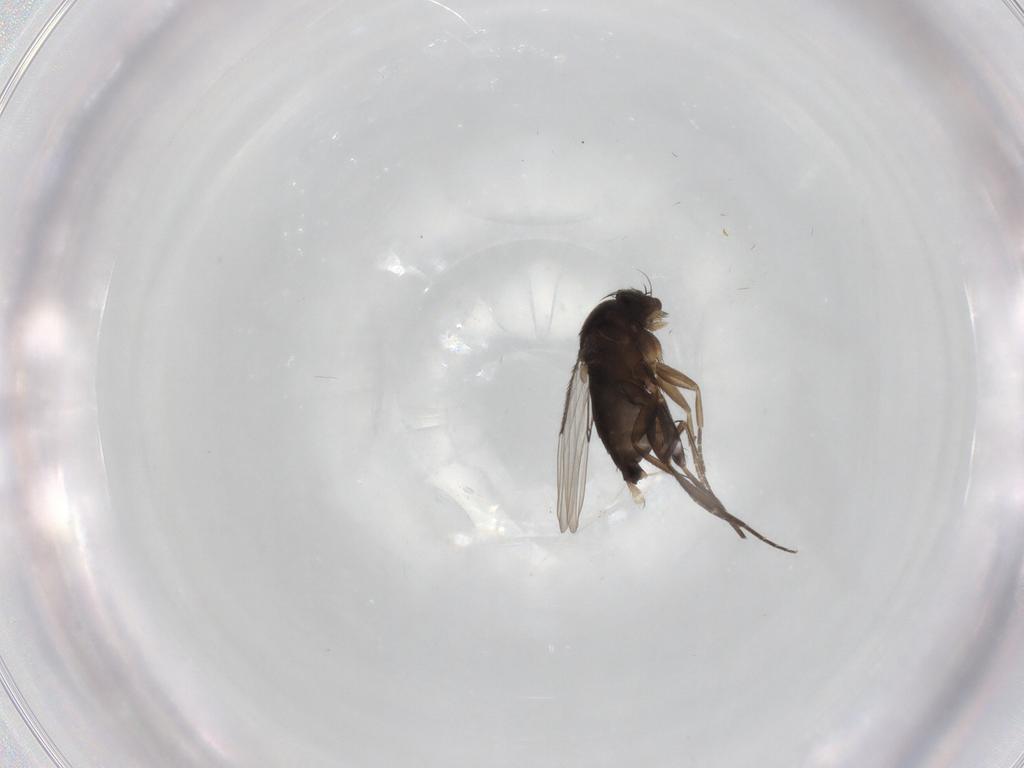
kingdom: Animalia
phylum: Arthropoda
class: Insecta
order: Diptera
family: Phoridae
